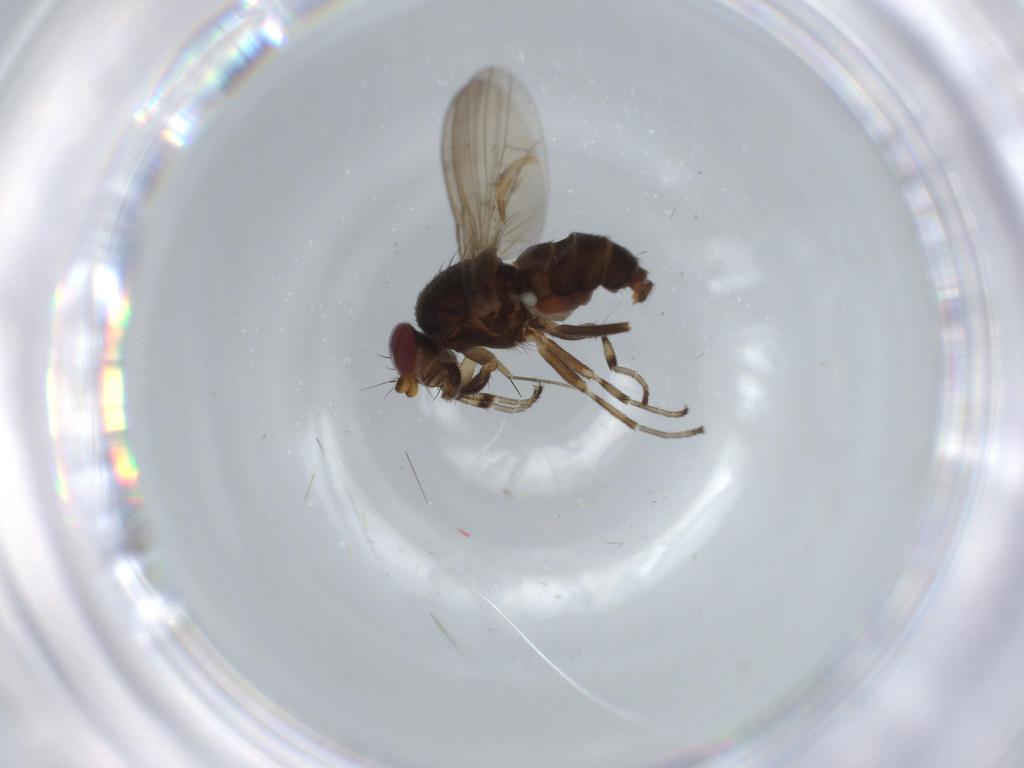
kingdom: Animalia
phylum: Arthropoda
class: Insecta
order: Diptera
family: Heleomyzidae
